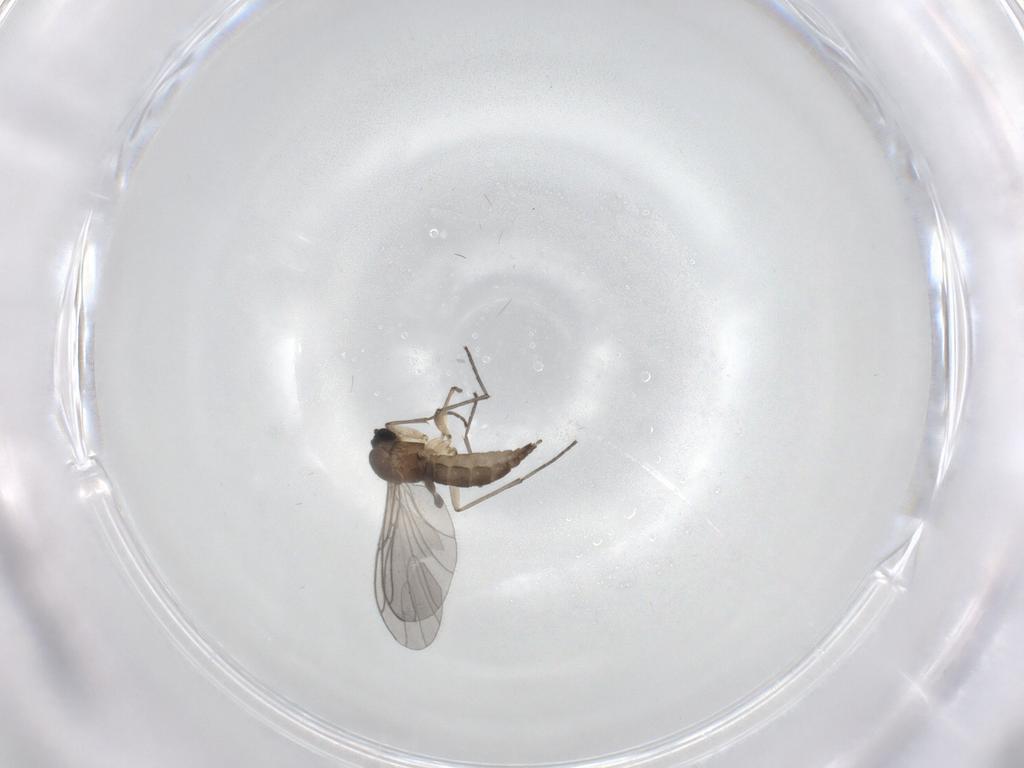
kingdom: Animalia
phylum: Arthropoda
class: Insecta
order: Diptera
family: Sciaridae
